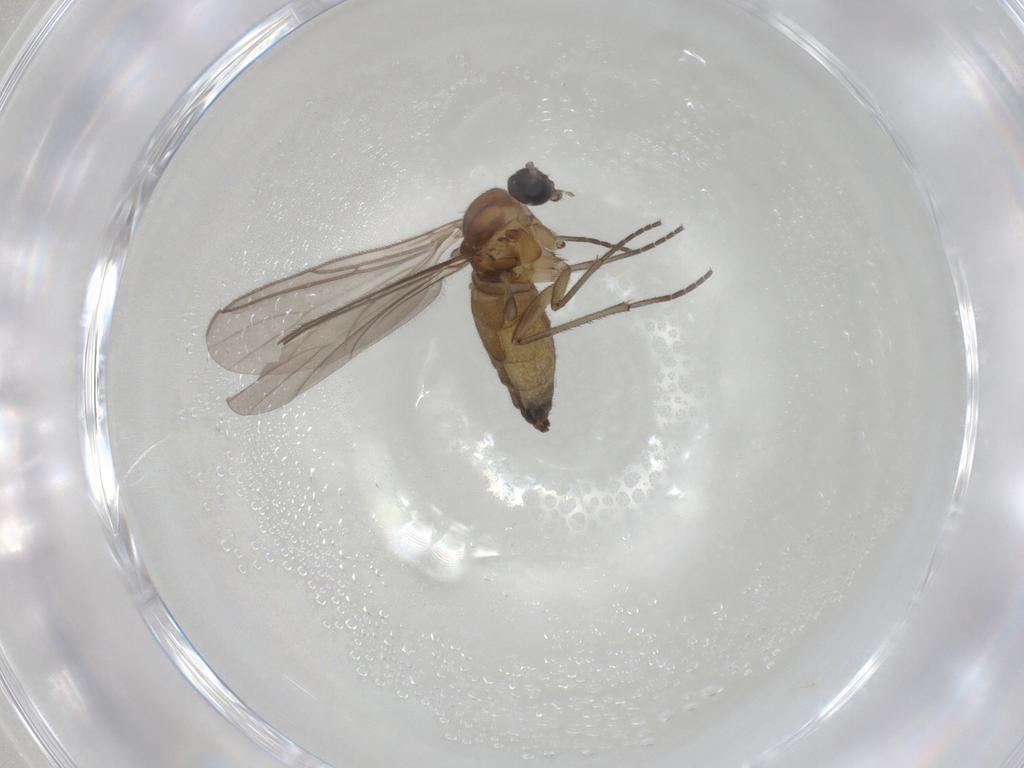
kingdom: Animalia
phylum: Arthropoda
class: Insecta
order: Diptera
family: Sciaridae
